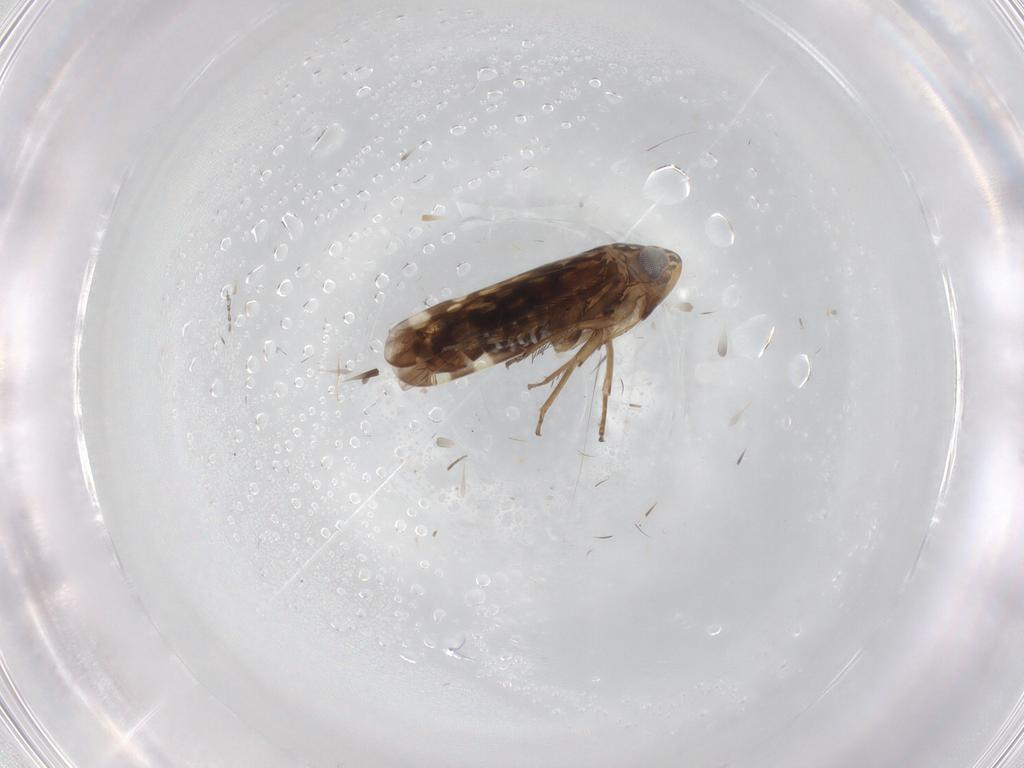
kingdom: Animalia
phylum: Arthropoda
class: Insecta
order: Hemiptera
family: Cicadellidae
